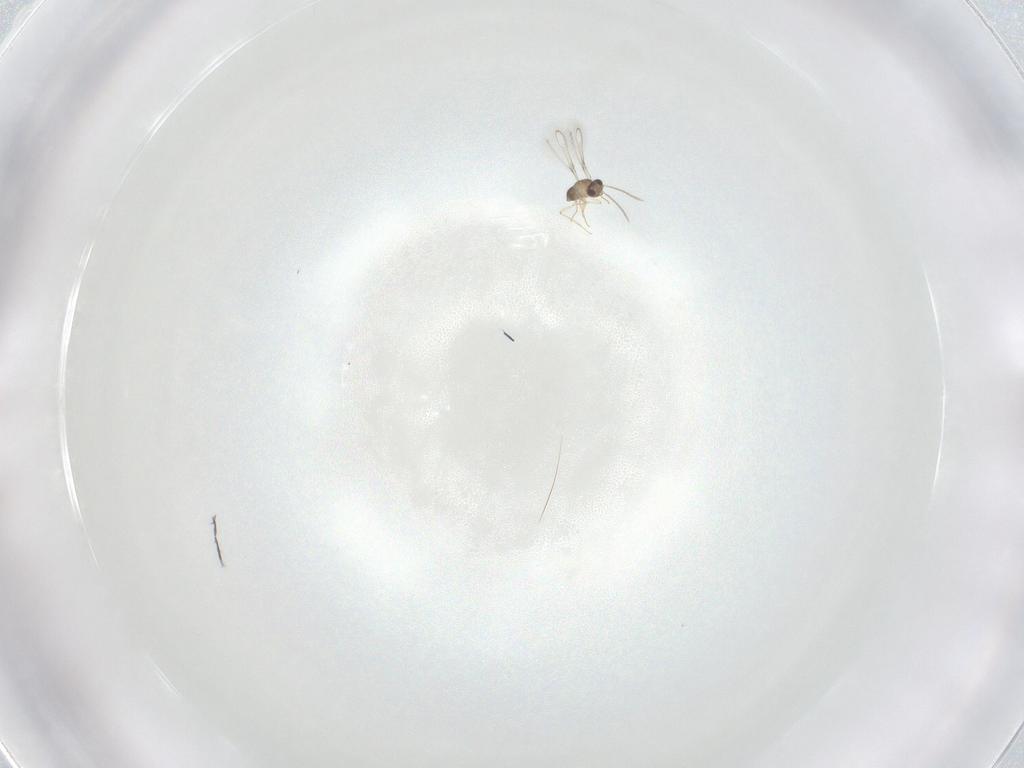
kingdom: Animalia
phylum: Arthropoda
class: Insecta
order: Hymenoptera
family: Mymaridae
